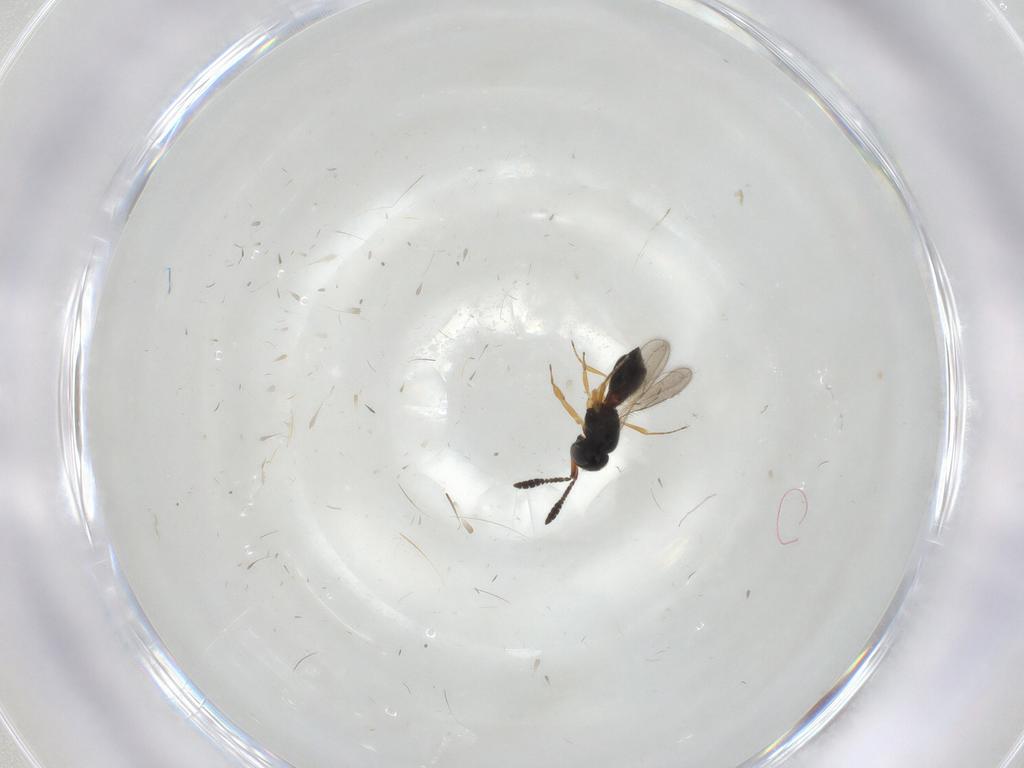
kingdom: Animalia
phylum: Arthropoda
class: Insecta
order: Hymenoptera
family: Scelionidae
